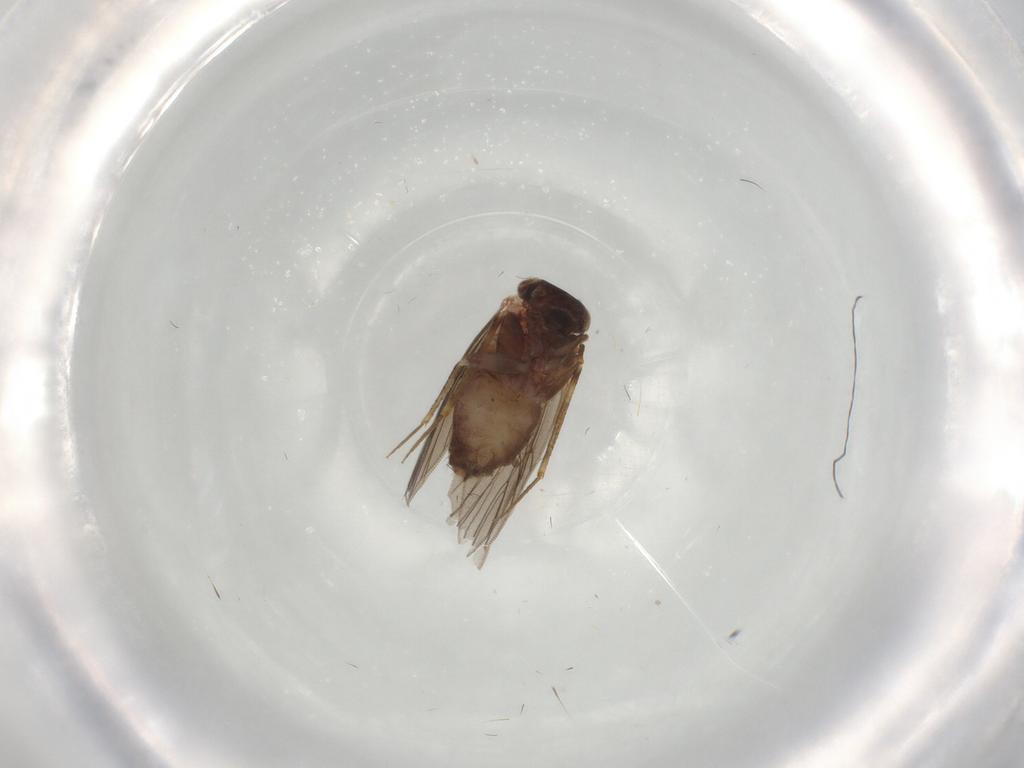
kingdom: Animalia
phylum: Arthropoda
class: Insecta
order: Psocodea
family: Lepidopsocidae
